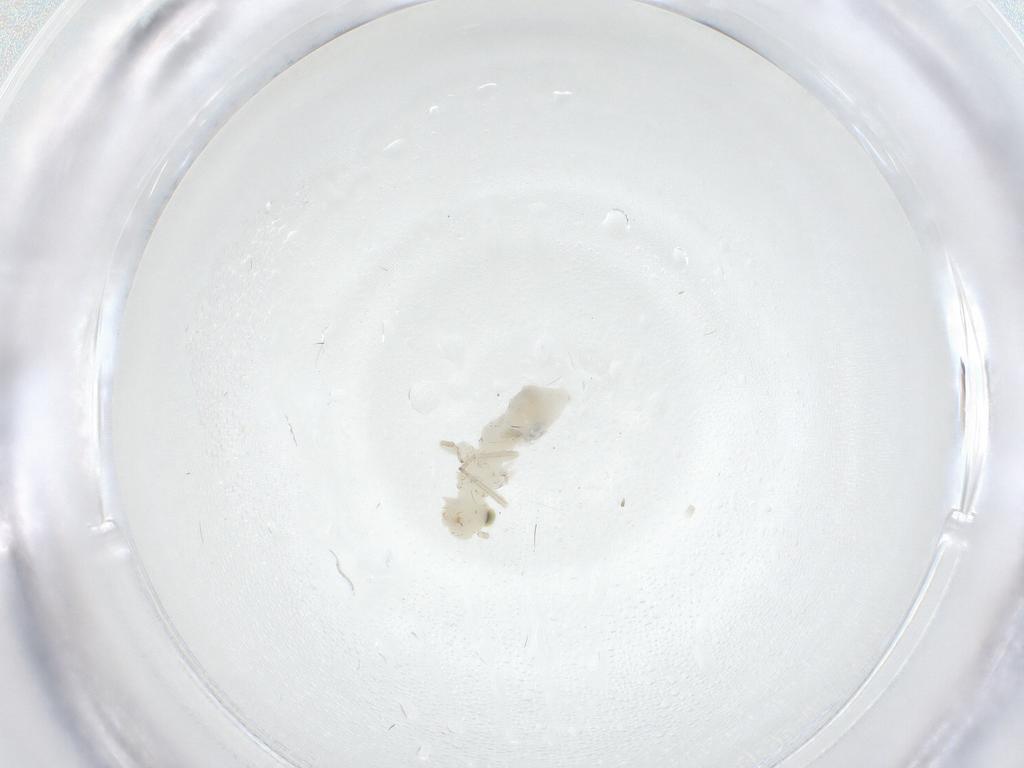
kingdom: Animalia
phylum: Arthropoda
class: Insecta
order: Psocodea
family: Caeciliusidae
